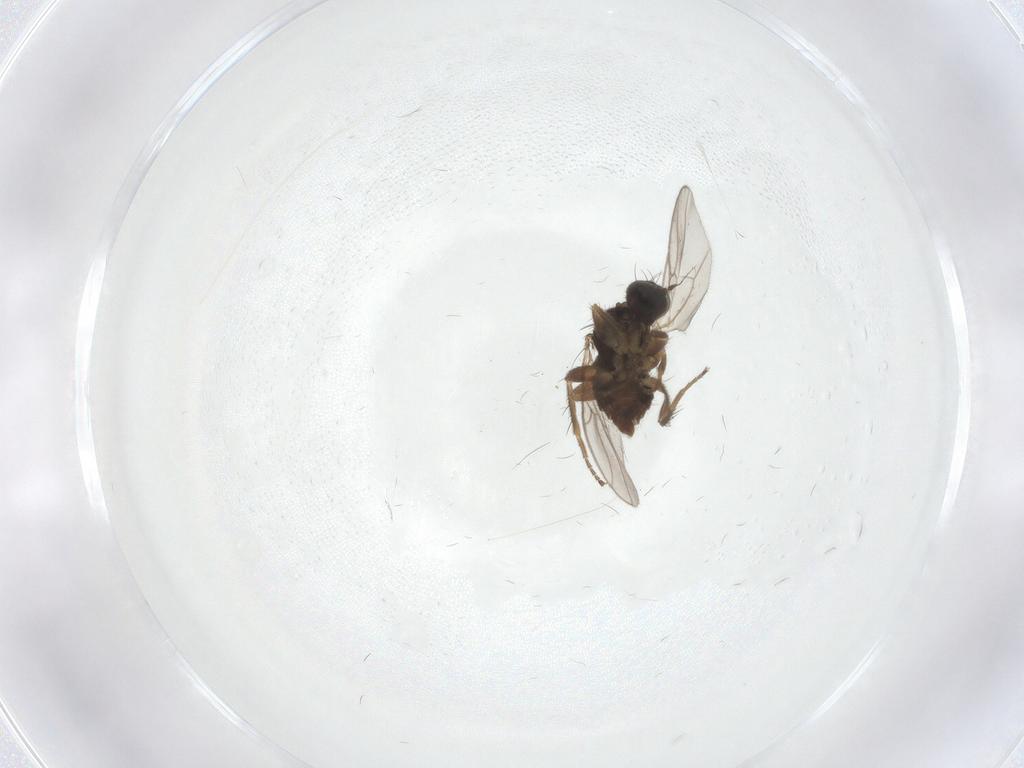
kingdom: Animalia
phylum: Arthropoda
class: Insecta
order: Diptera
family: Hybotidae
